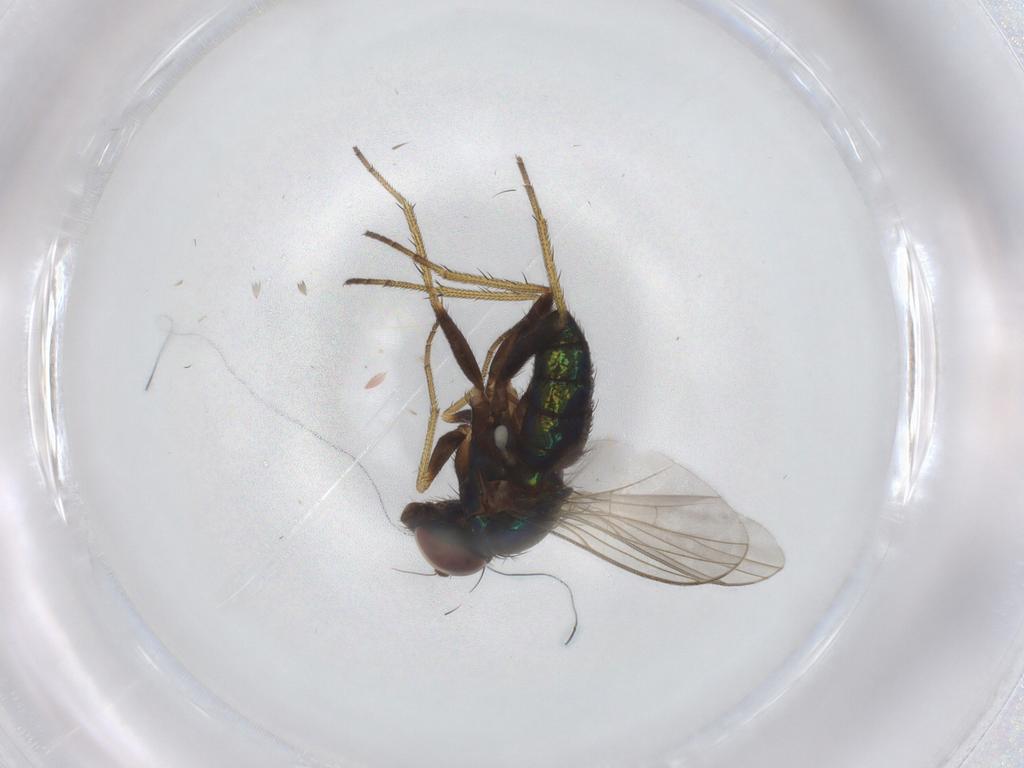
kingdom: Animalia
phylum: Arthropoda
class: Insecta
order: Diptera
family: Dolichopodidae
